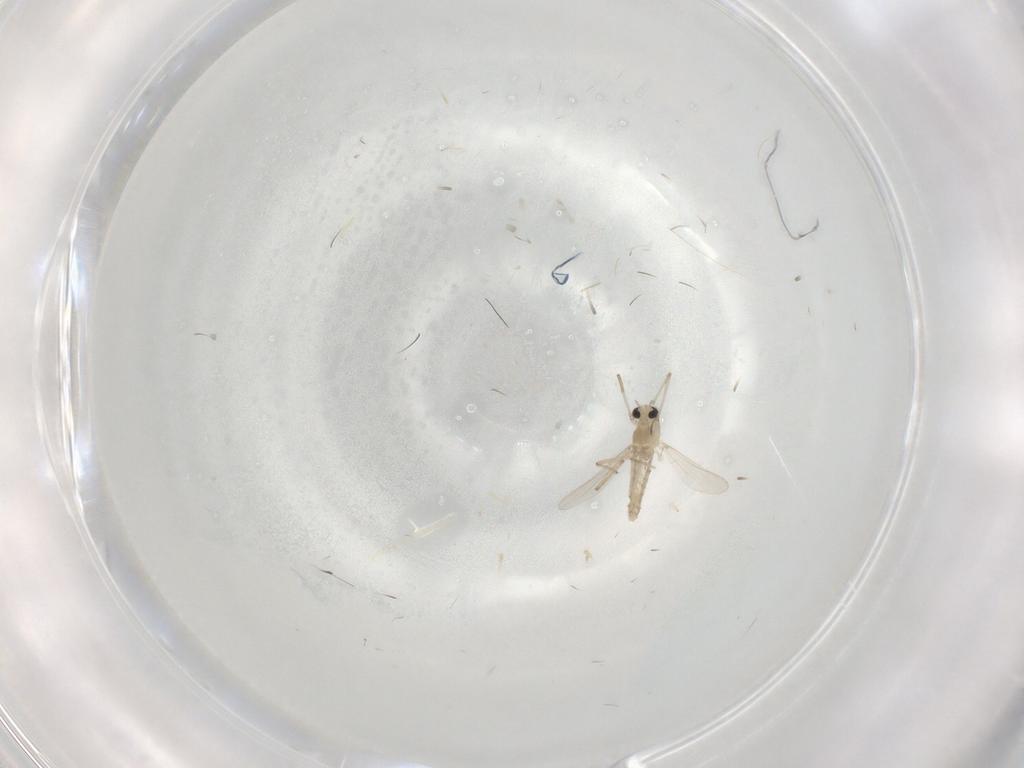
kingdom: Animalia
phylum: Arthropoda
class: Insecta
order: Diptera
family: Chironomidae
